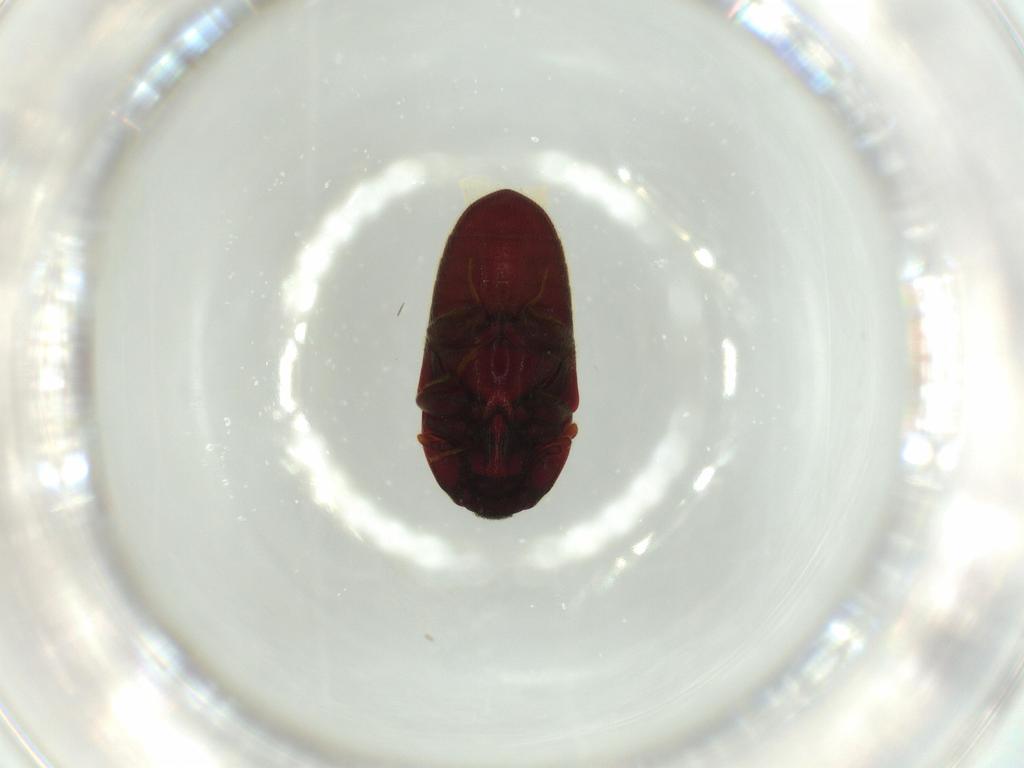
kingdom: Animalia
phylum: Arthropoda
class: Insecta
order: Coleoptera
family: Throscidae
